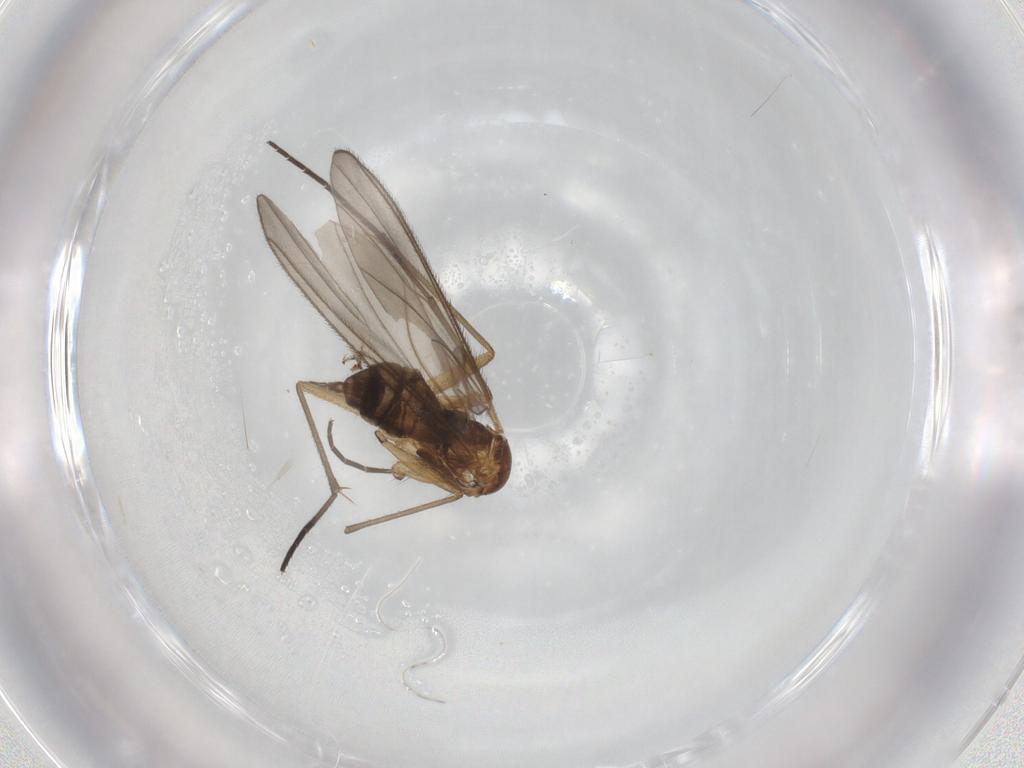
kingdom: Animalia
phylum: Arthropoda
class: Insecta
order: Diptera
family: Sciaridae
